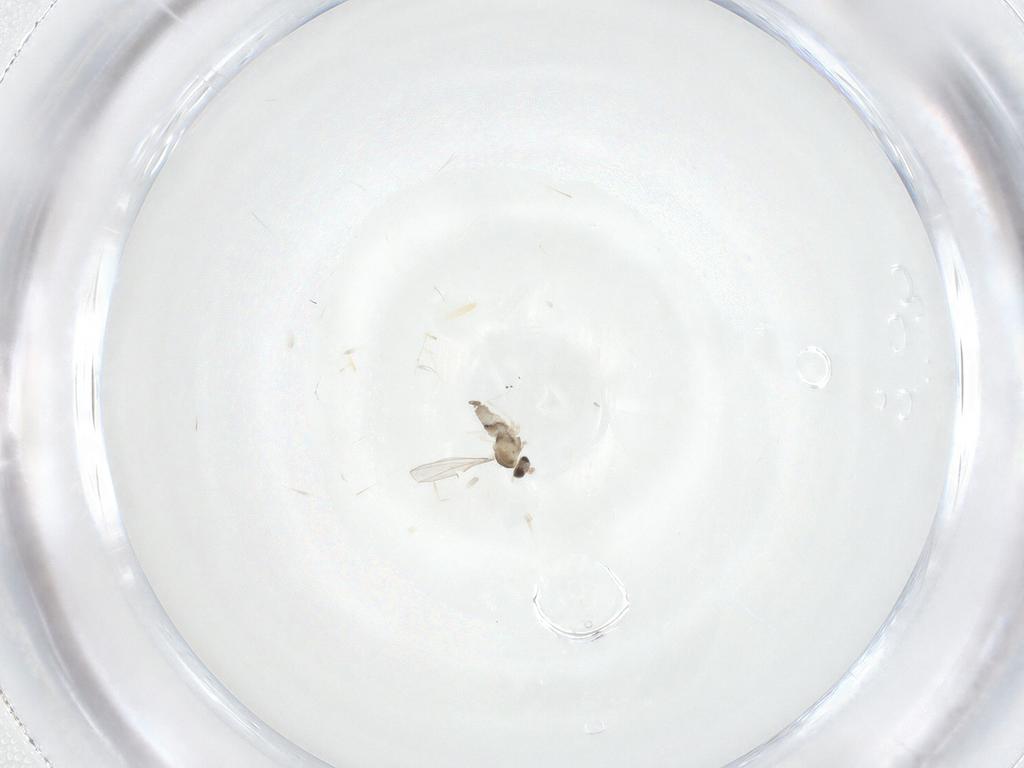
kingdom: Animalia
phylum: Arthropoda
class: Insecta
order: Diptera
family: Cecidomyiidae
